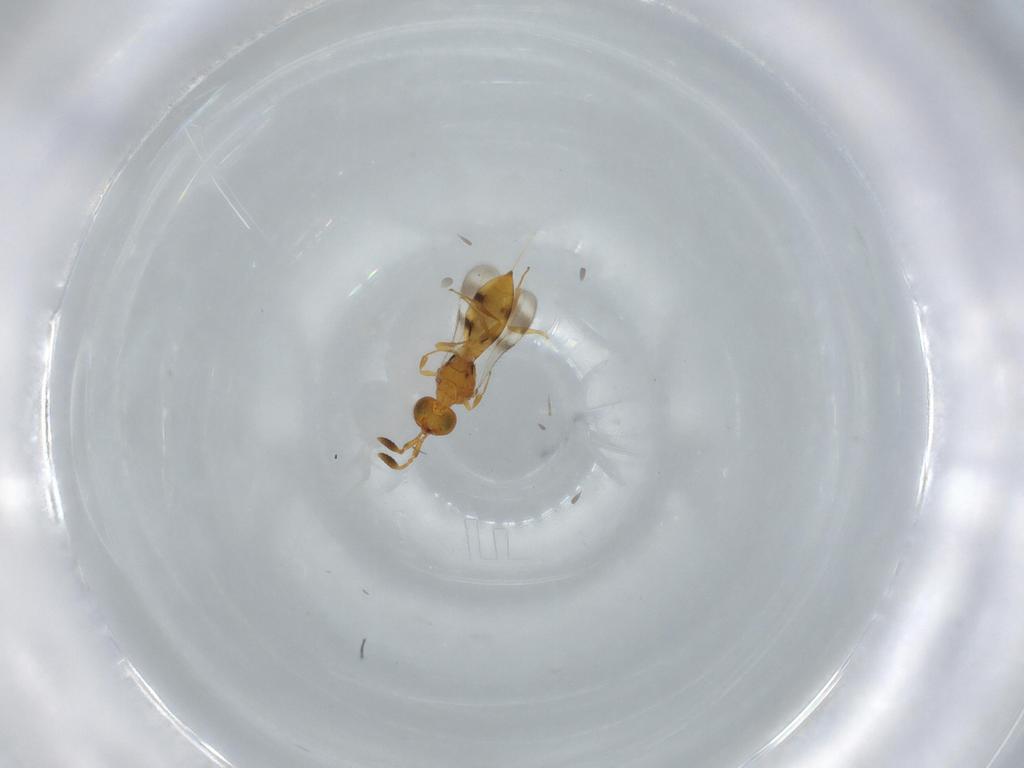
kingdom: Animalia
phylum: Arthropoda
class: Insecta
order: Hymenoptera
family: Scelionidae
